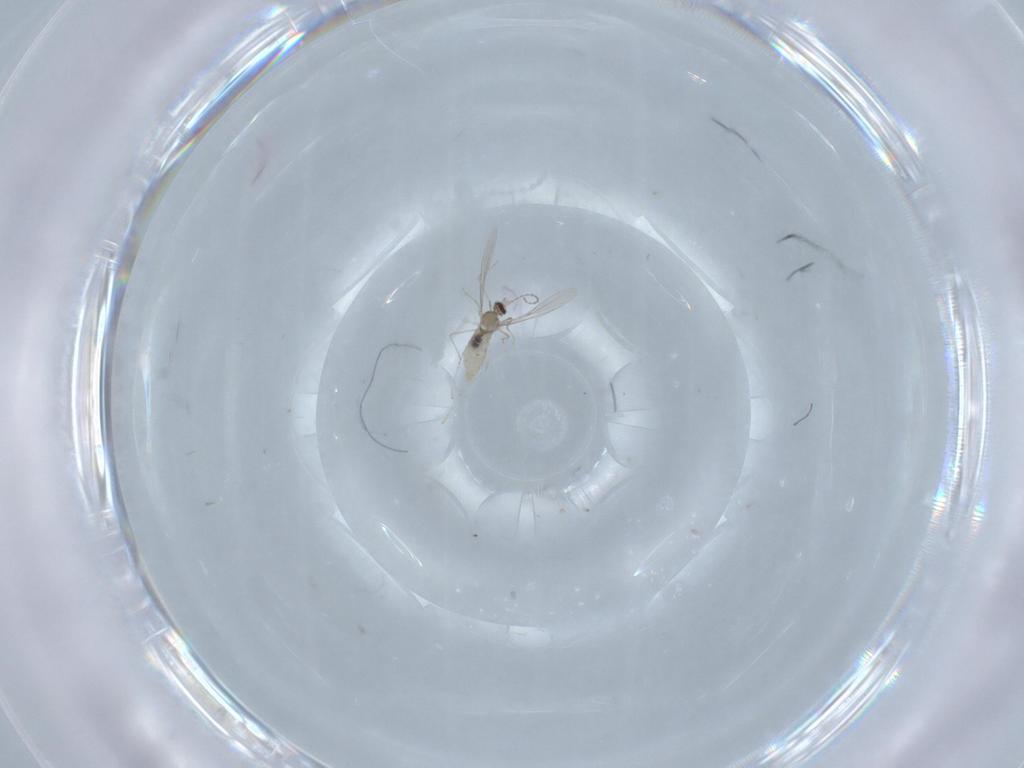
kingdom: Animalia
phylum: Arthropoda
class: Insecta
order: Diptera
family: Cecidomyiidae
